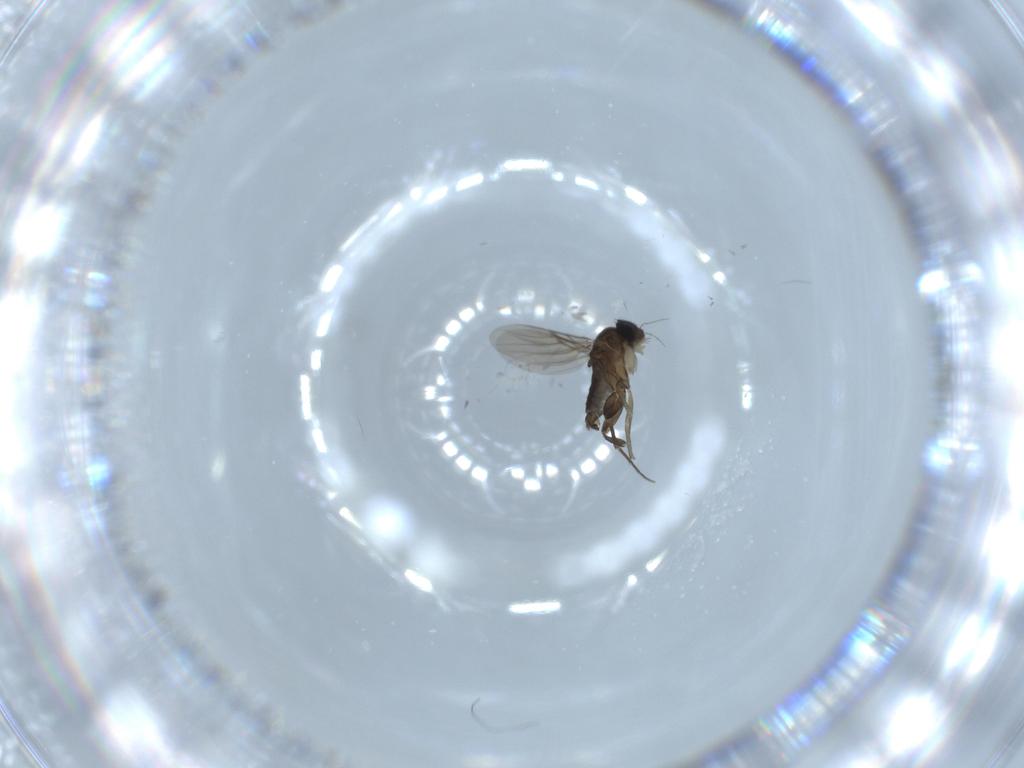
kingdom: Animalia
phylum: Arthropoda
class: Insecta
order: Diptera
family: Phoridae
